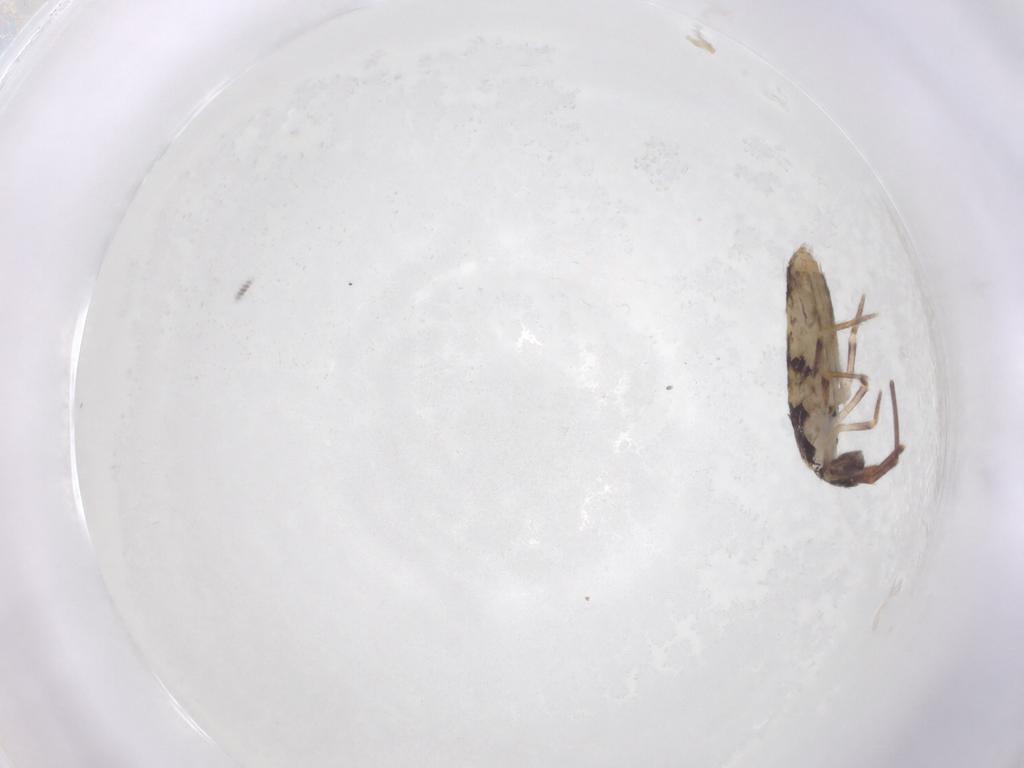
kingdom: Animalia
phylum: Arthropoda
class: Collembola
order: Entomobryomorpha
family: Entomobryidae
